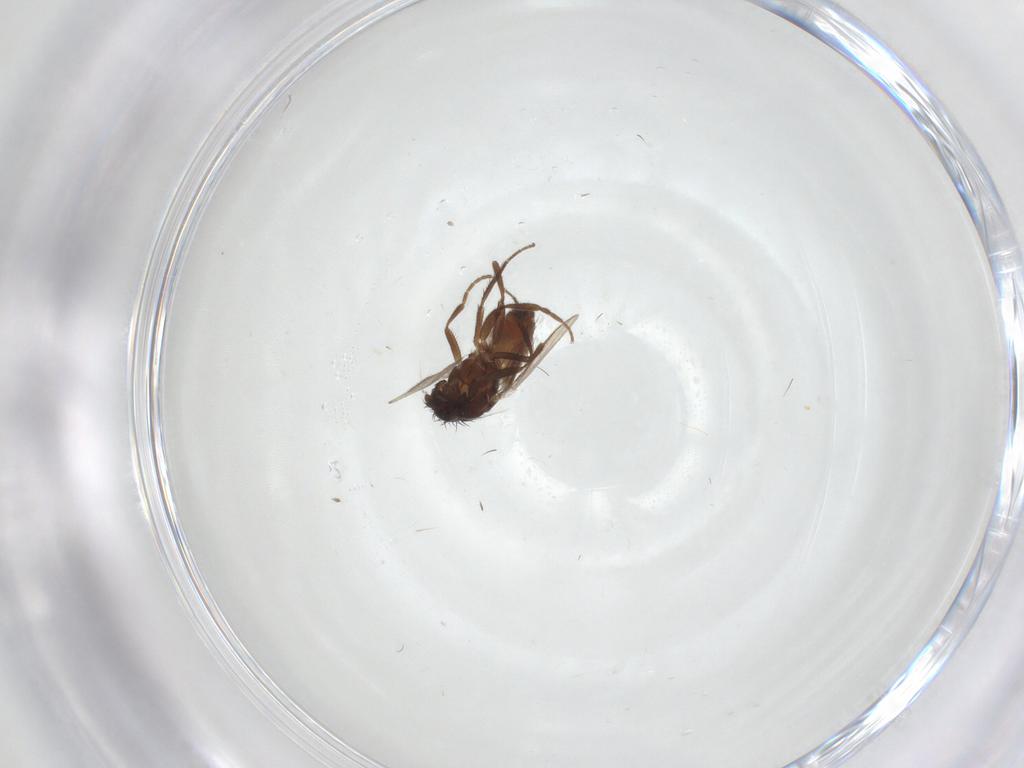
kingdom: Animalia
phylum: Arthropoda
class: Insecta
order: Diptera
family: Sphaeroceridae
